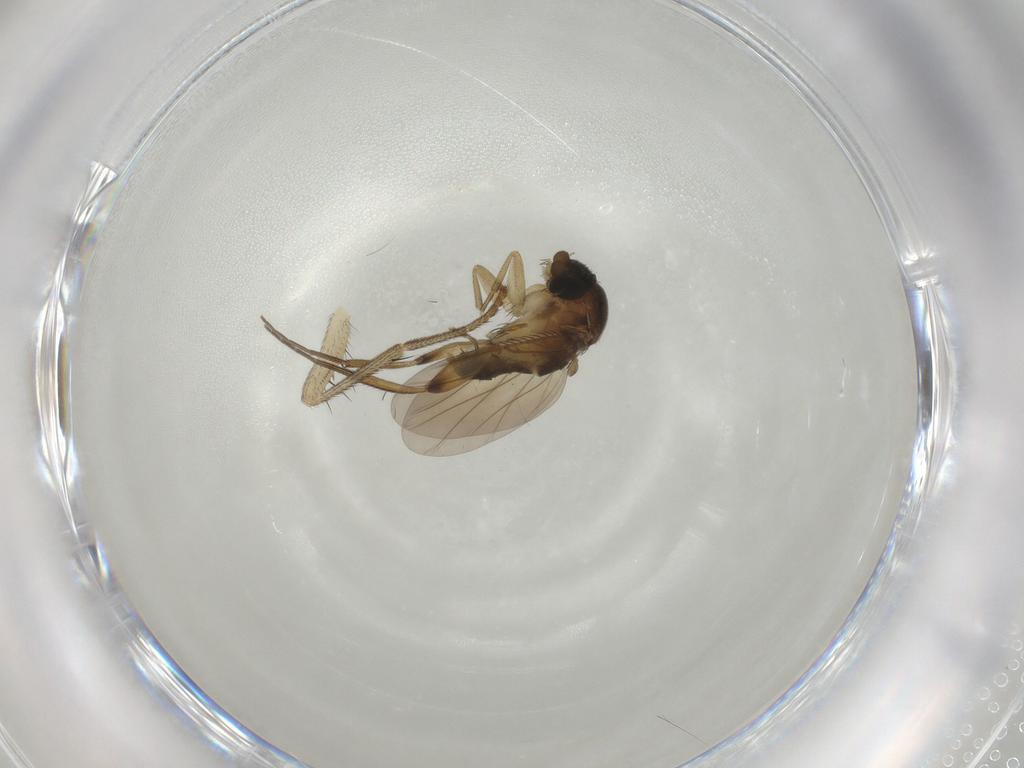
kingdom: Animalia
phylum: Arthropoda
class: Insecta
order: Diptera
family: Phoridae
